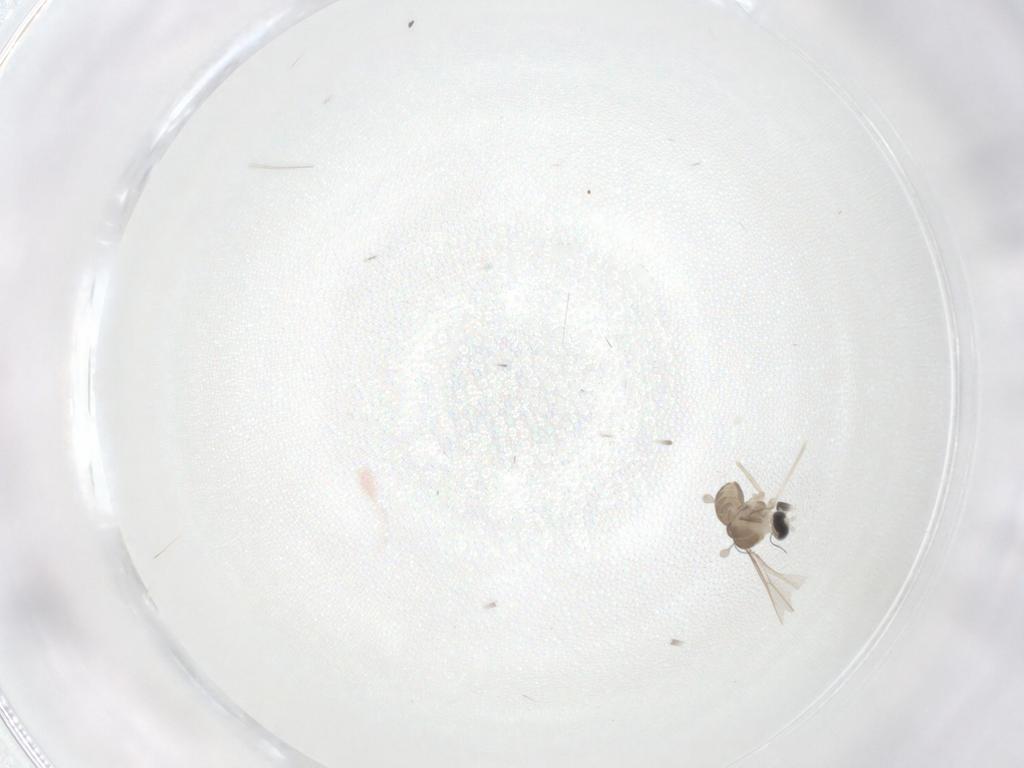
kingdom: Animalia
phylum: Arthropoda
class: Insecta
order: Diptera
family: Cecidomyiidae
